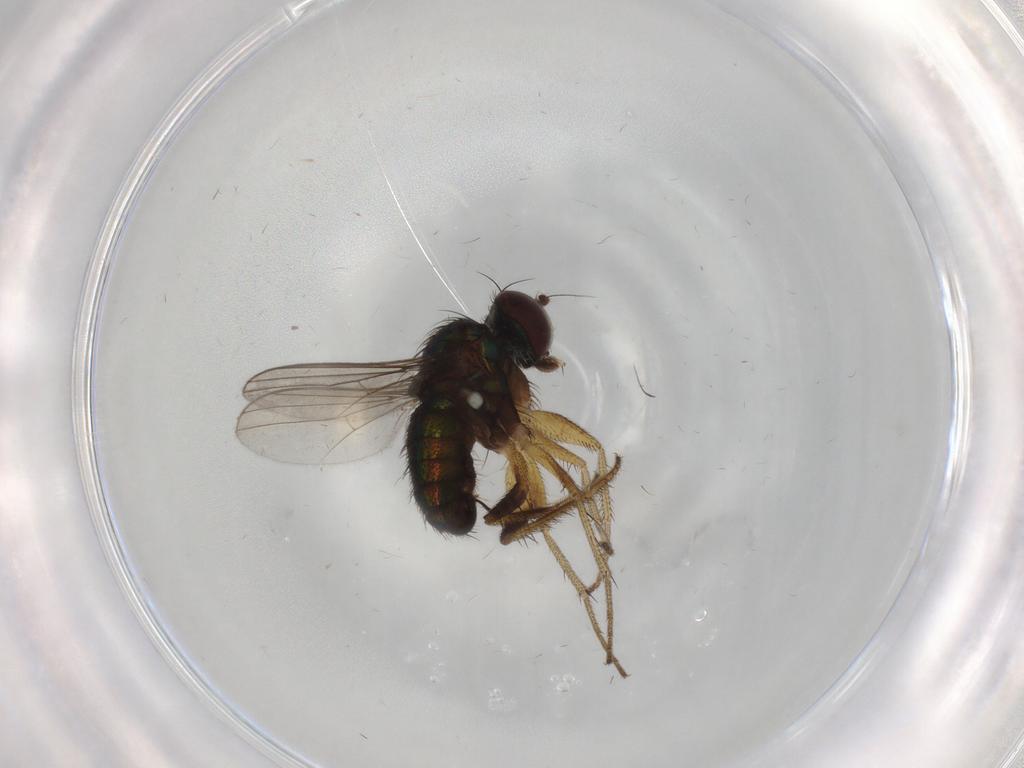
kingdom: Animalia
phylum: Arthropoda
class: Insecta
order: Diptera
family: Dolichopodidae
